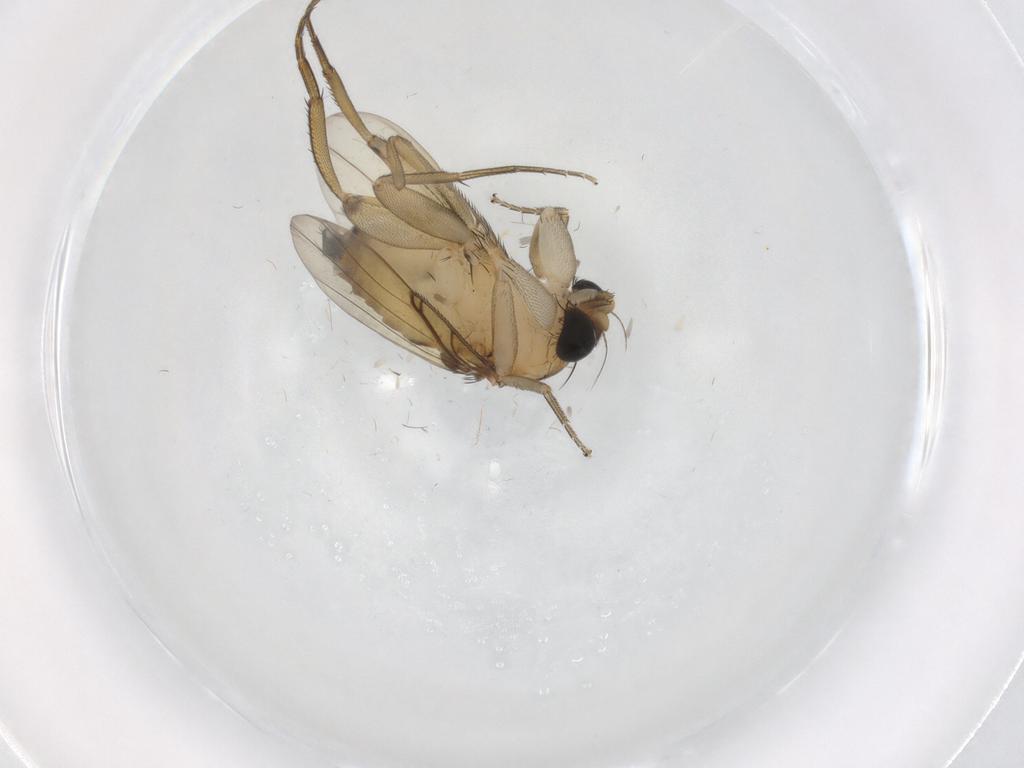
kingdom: Animalia
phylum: Arthropoda
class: Insecta
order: Diptera
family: Phoridae
